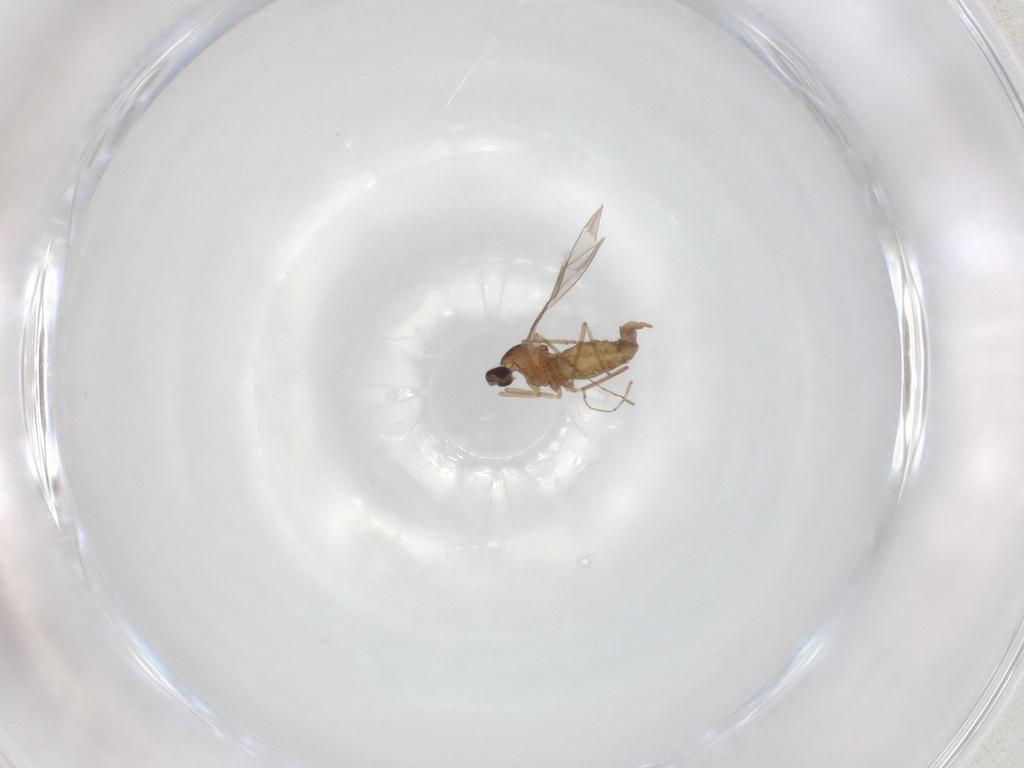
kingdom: Animalia
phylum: Arthropoda
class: Insecta
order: Diptera
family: Cecidomyiidae
